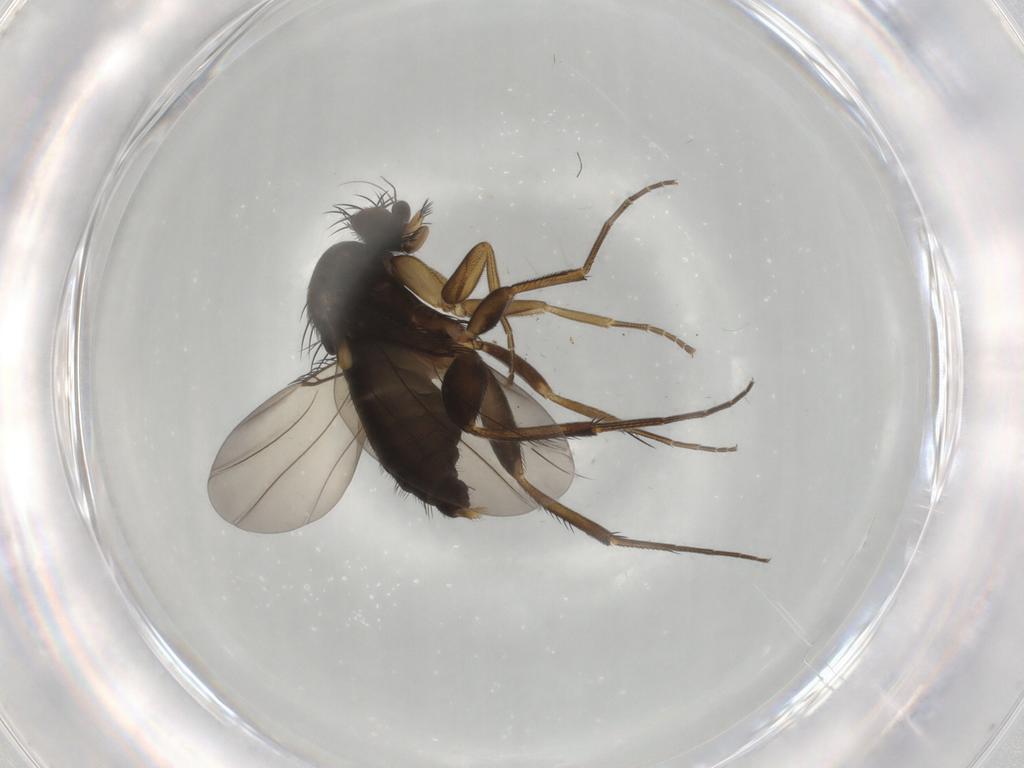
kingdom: Animalia
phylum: Arthropoda
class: Insecta
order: Diptera
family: Phoridae
